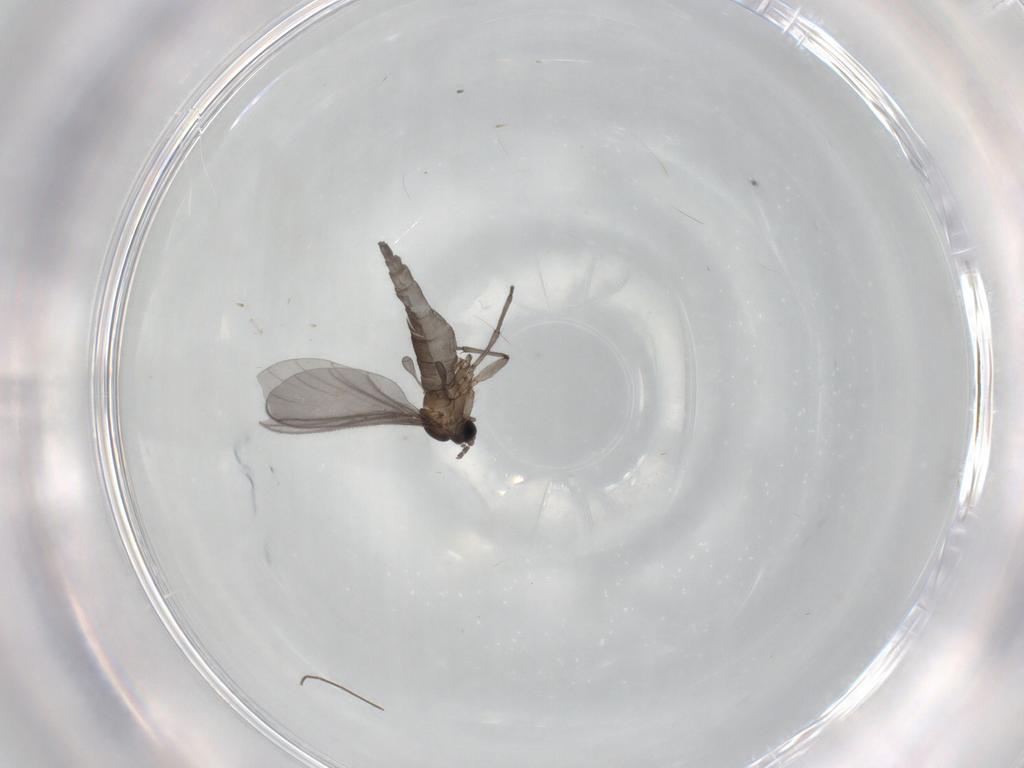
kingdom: Animalia
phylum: Arthropoda
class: Insecta
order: Diptera
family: Sciaridae
